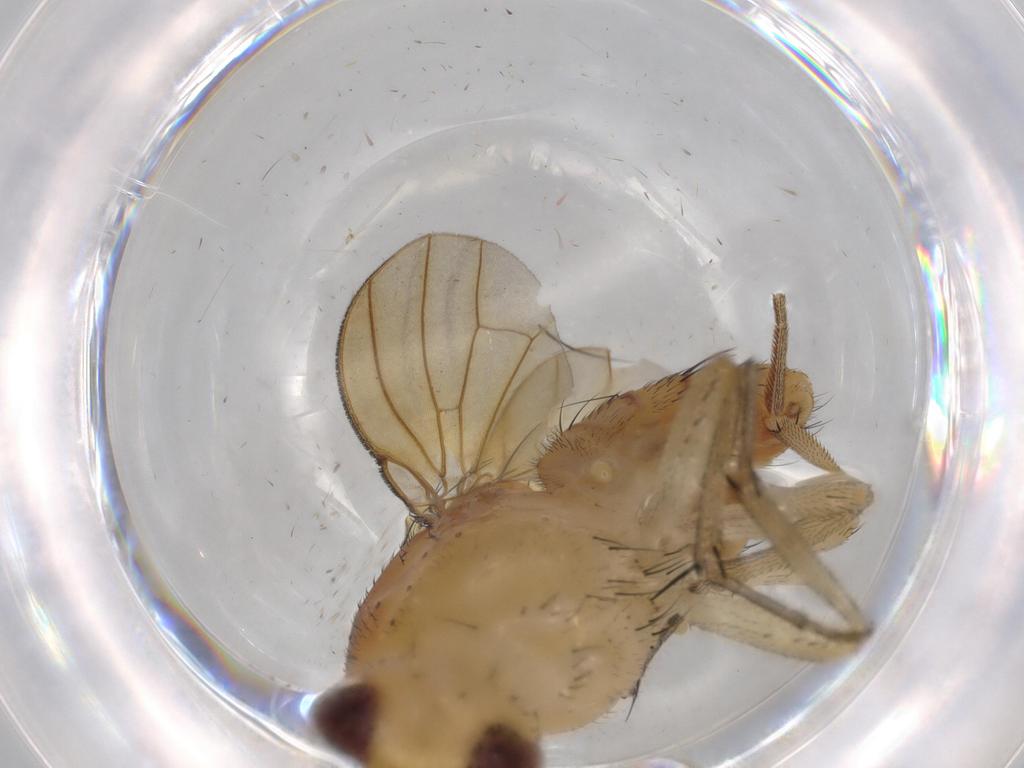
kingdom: Animalia
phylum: Arthropoda
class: Insecta
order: Diptera
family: Lauxaniidae
